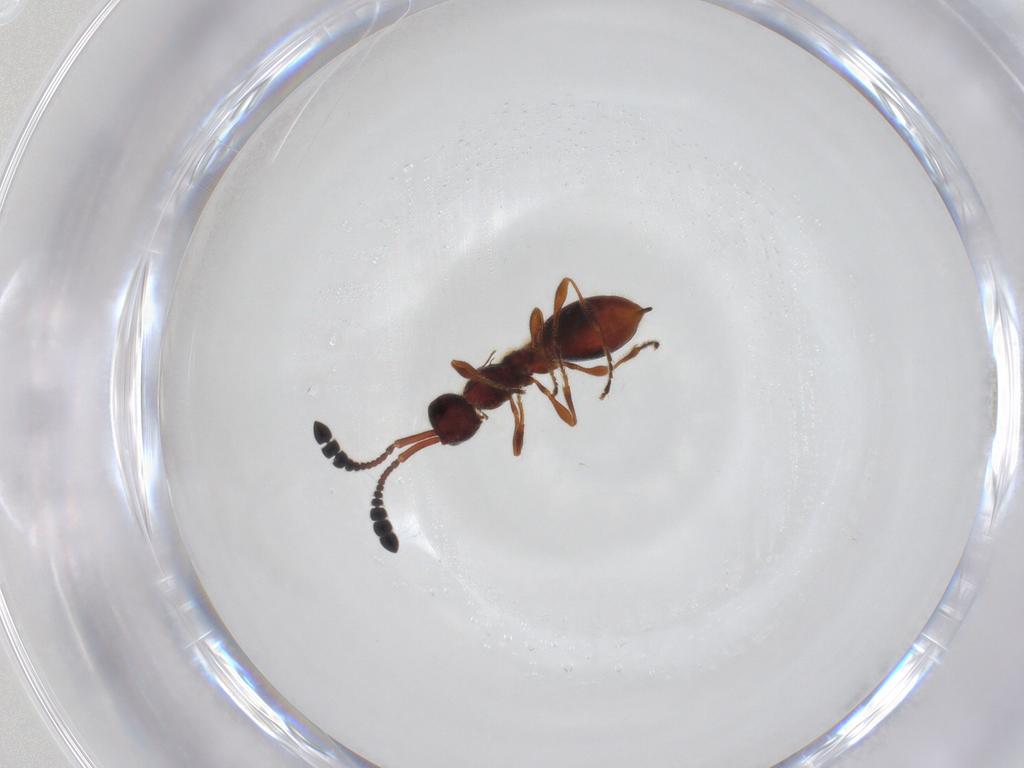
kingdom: Animalia
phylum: Arthropoda
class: Insecta
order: Hymenoptera
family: Diapriidae
